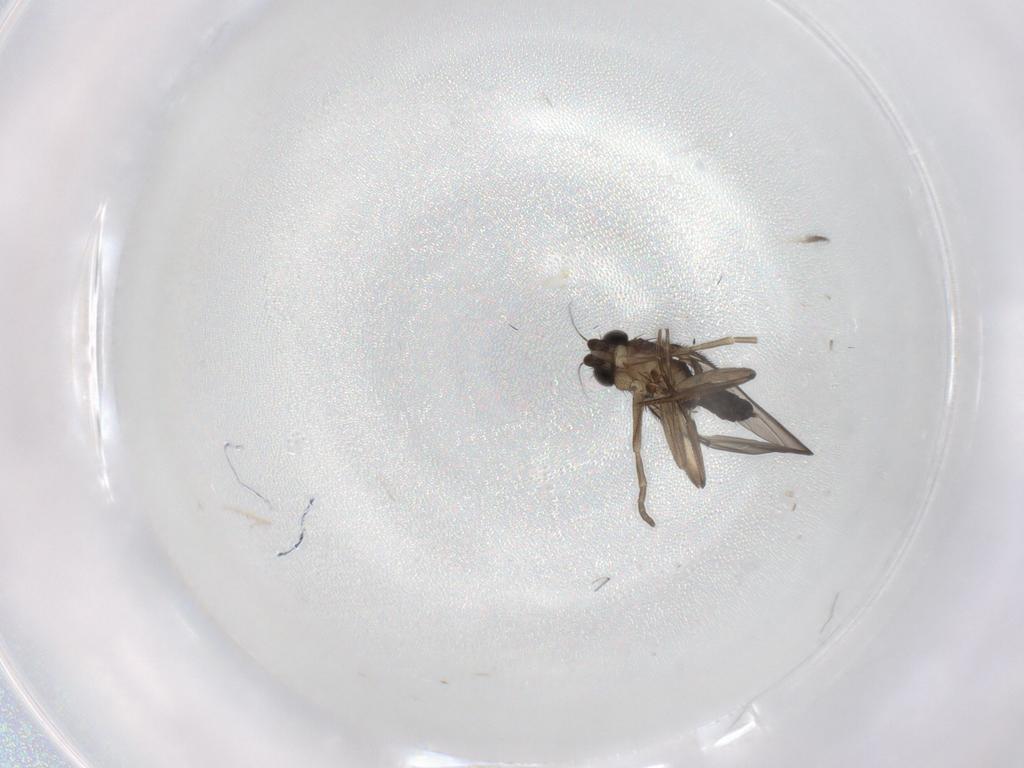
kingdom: Animalia
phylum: Arthropoda
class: Insecta
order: Diptera
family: Phoridae
